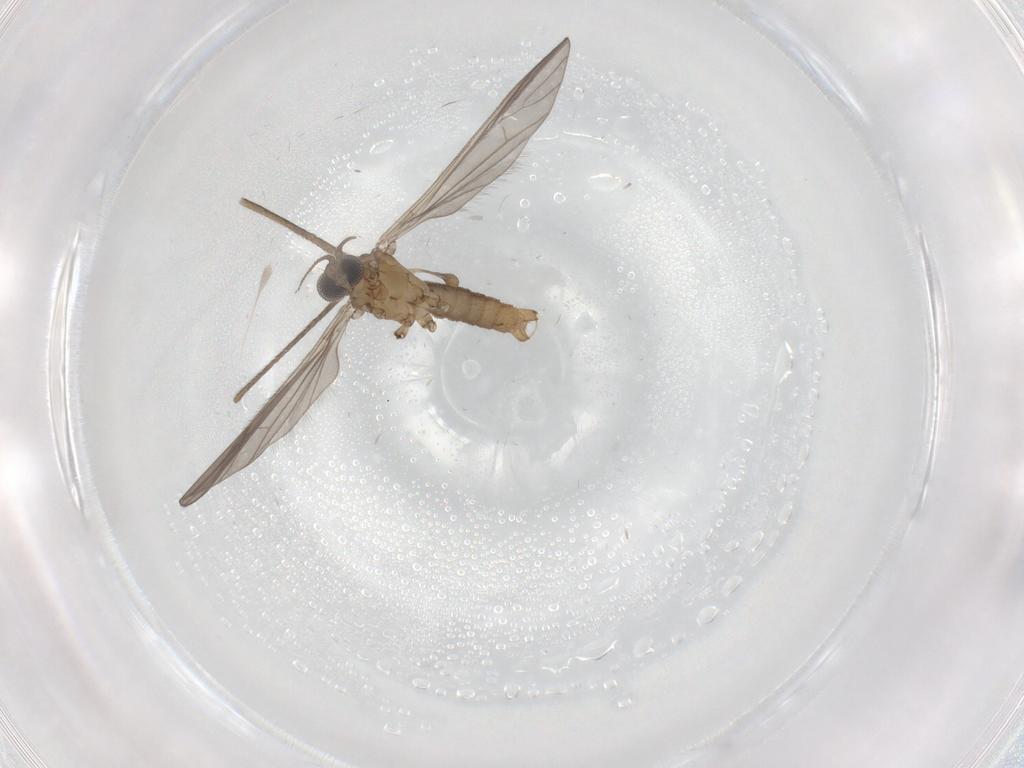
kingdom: Animalia
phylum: Arthropoda
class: Insecta
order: Diptera
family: Limoniidae
